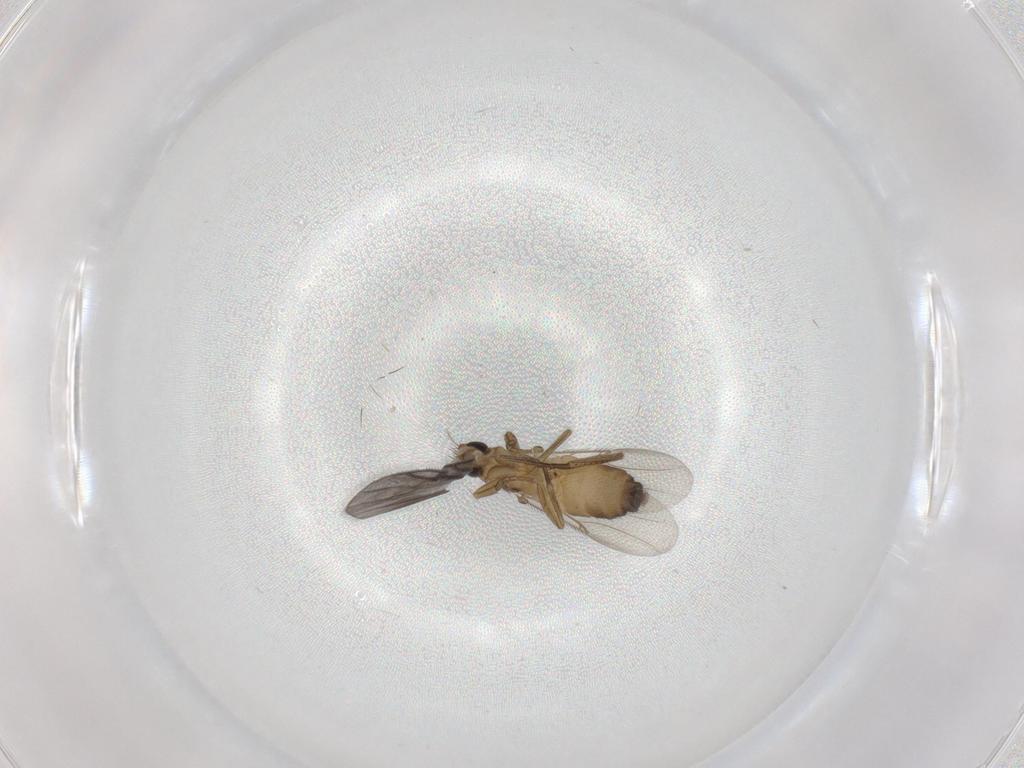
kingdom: Animalia
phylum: Arthropoda
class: Insecta
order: Diptera
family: Phoridae
